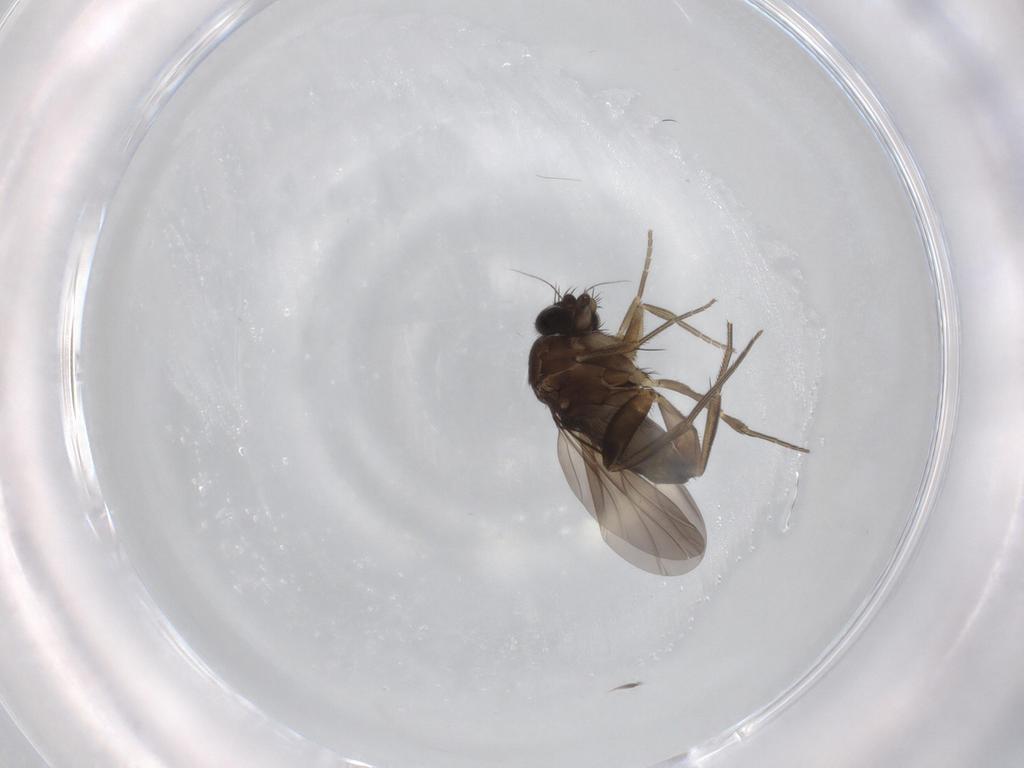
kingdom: Animalia
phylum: Arthropoda
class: Insecta
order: Diptera
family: Phoridae
